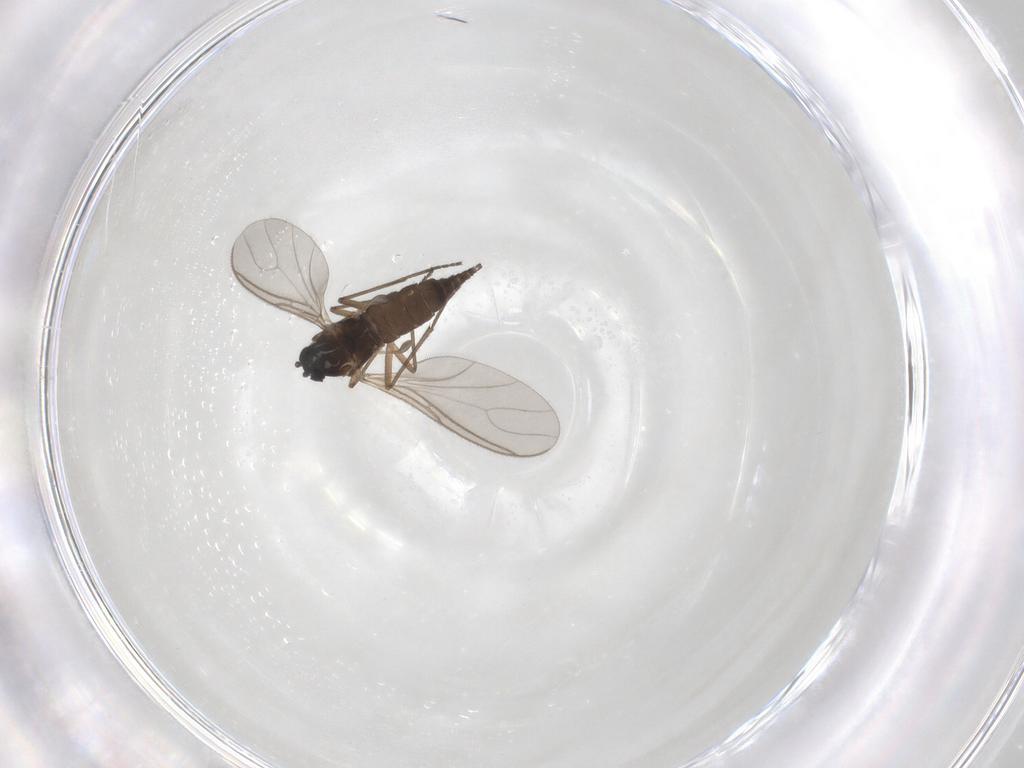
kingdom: Animalia
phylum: Arthropoda
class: Insecta
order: Diptera
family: Sciaridae
